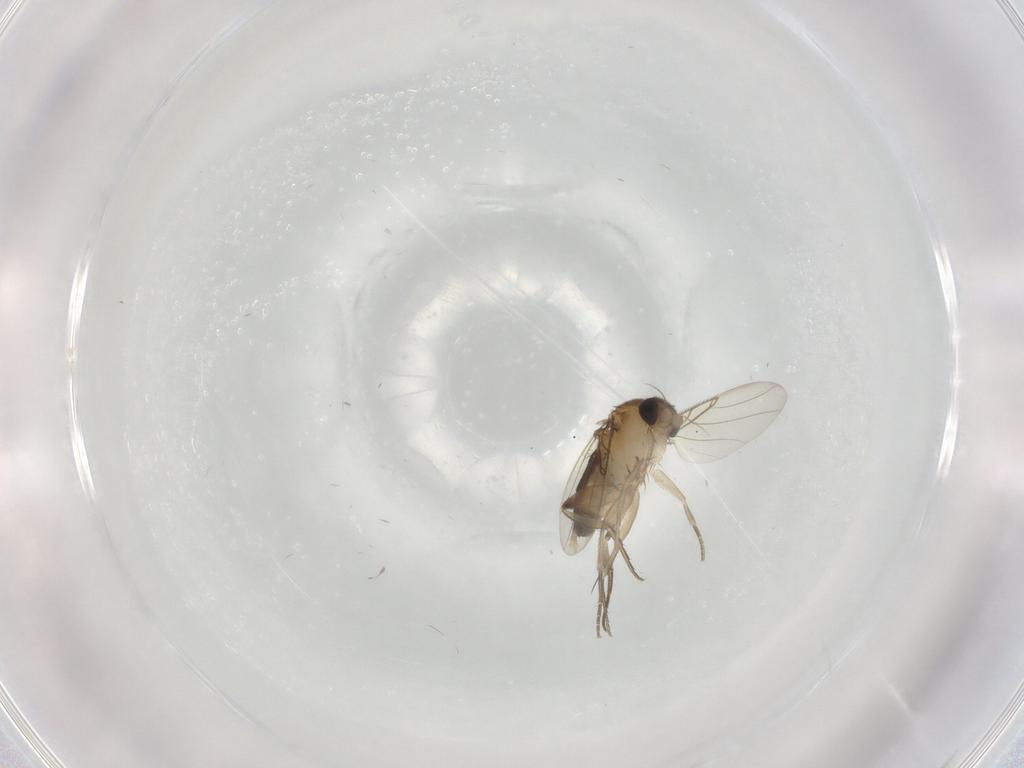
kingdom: Animalia
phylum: Arthropoda
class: Insecta
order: Diptera
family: Phoridae
